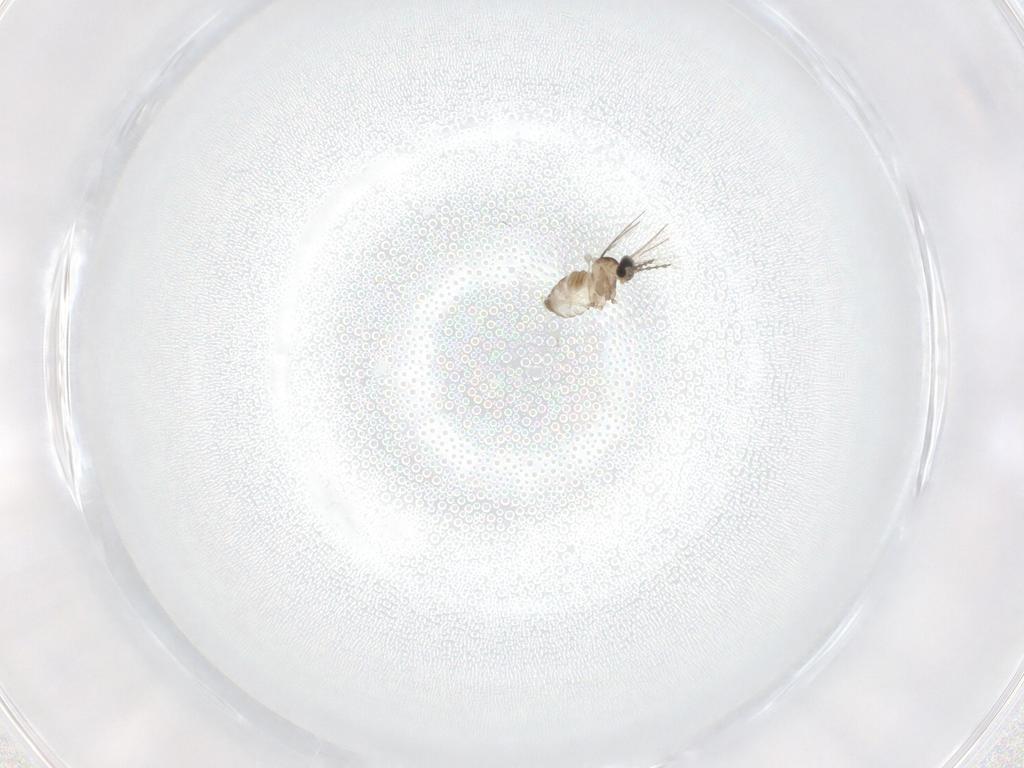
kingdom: Animalia
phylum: Arthropoda
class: Insecta
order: Diptera
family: Cecidomyiidae
